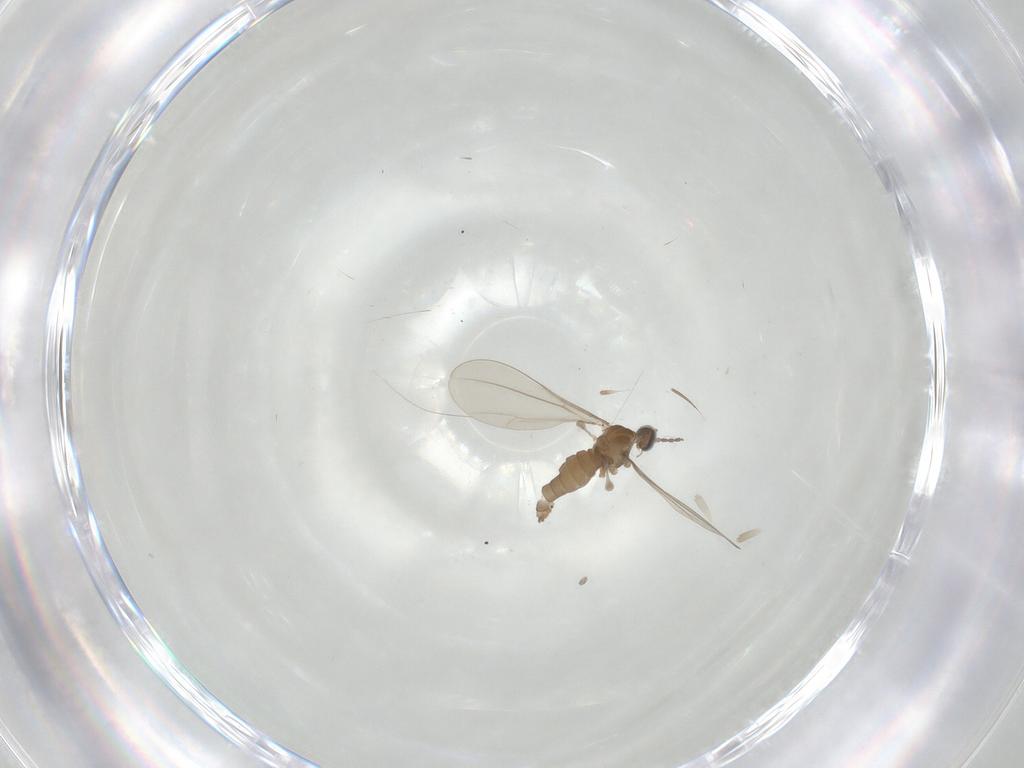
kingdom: Animalia
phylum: Arthropoda
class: Insecta
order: Diptera
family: Cecidomyiidae
